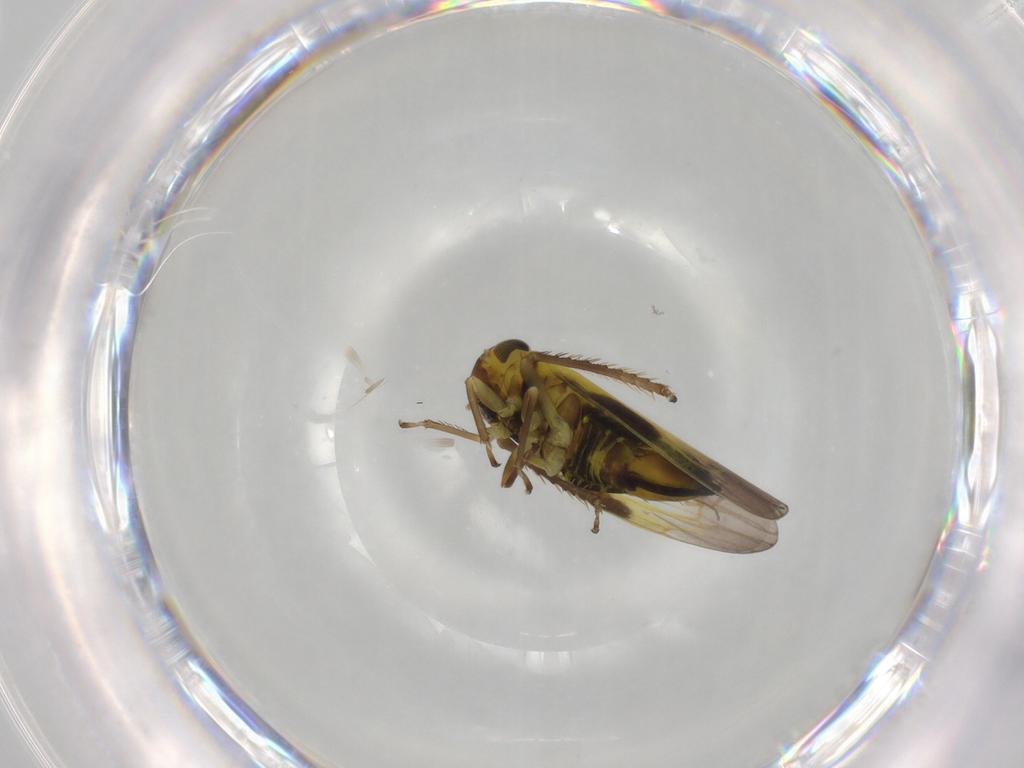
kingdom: Animalia
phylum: Arthropoda
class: Insecta
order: Hemiptera
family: Cicadellidae
